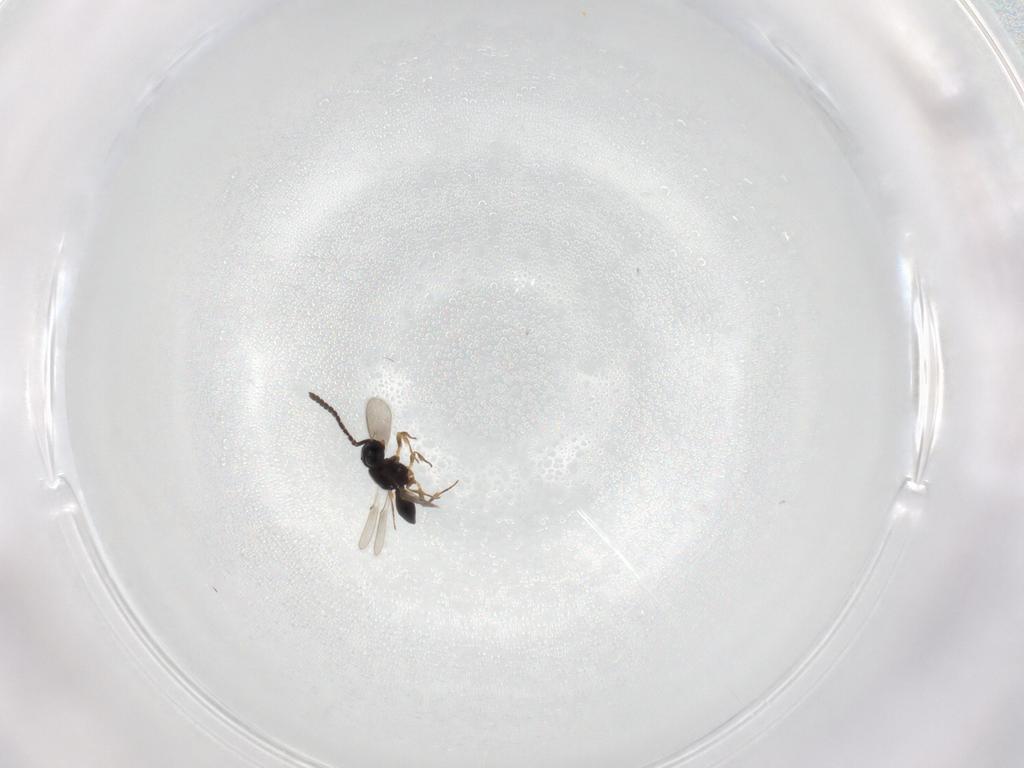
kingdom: Animalia
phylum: Arthropoda
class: Insecta
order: Hymenoptera
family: Scelionidae
